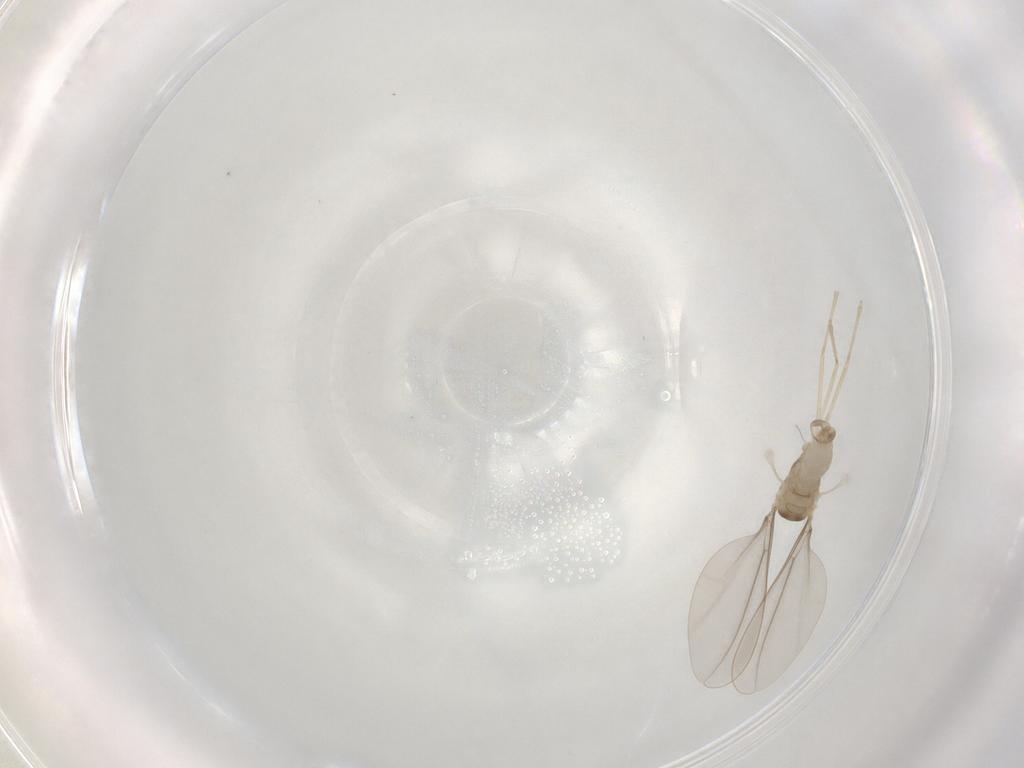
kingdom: Animalia
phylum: Arthropoda
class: Insecta
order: Diptera
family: Cecidomyiidae
